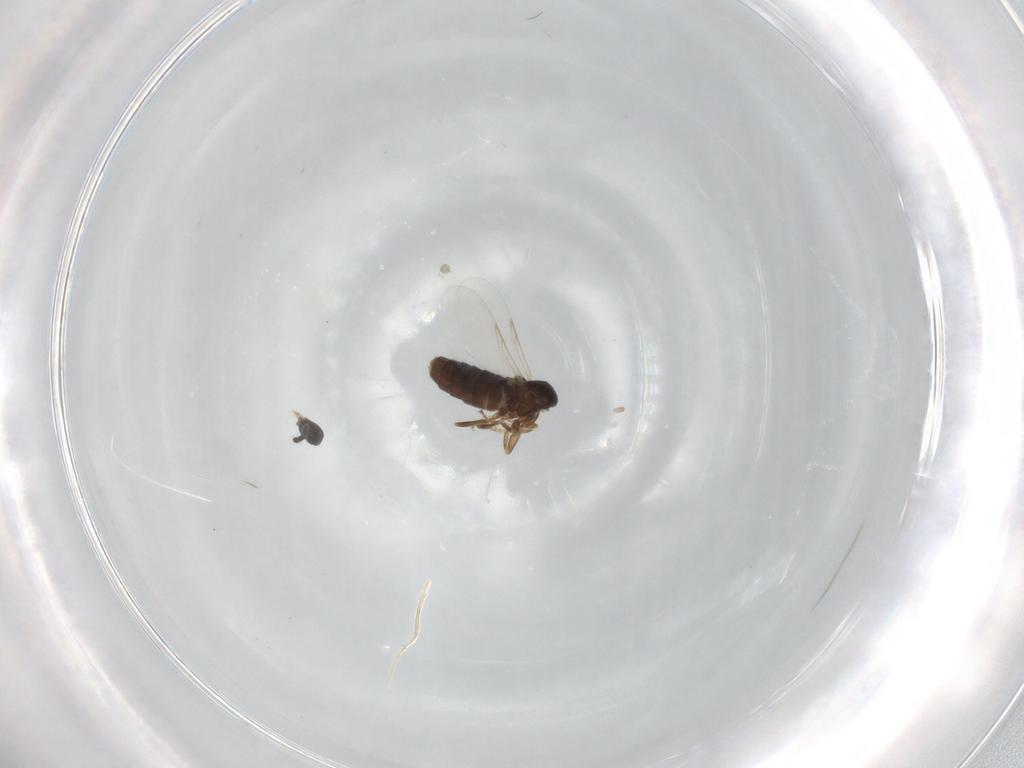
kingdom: Animalia
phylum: Arthropoda
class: Insecta
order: Diptera
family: Scatopsidae
